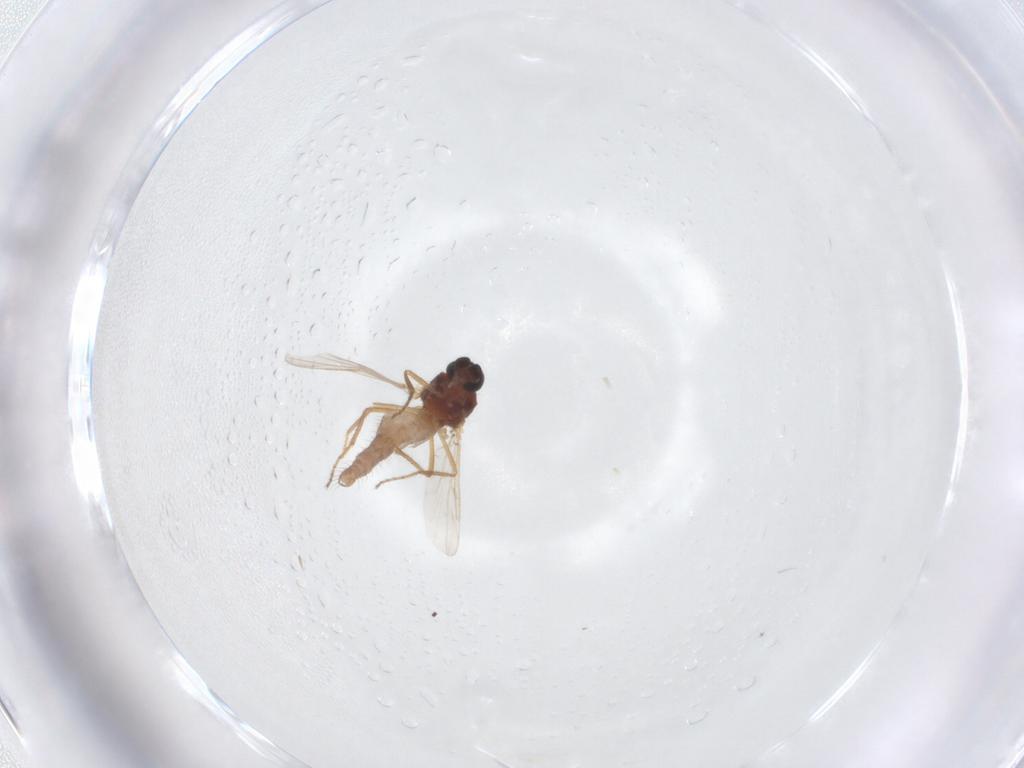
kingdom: Animalia
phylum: Arthropoda
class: Insecta
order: Diptera
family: Ceratopogonidae
